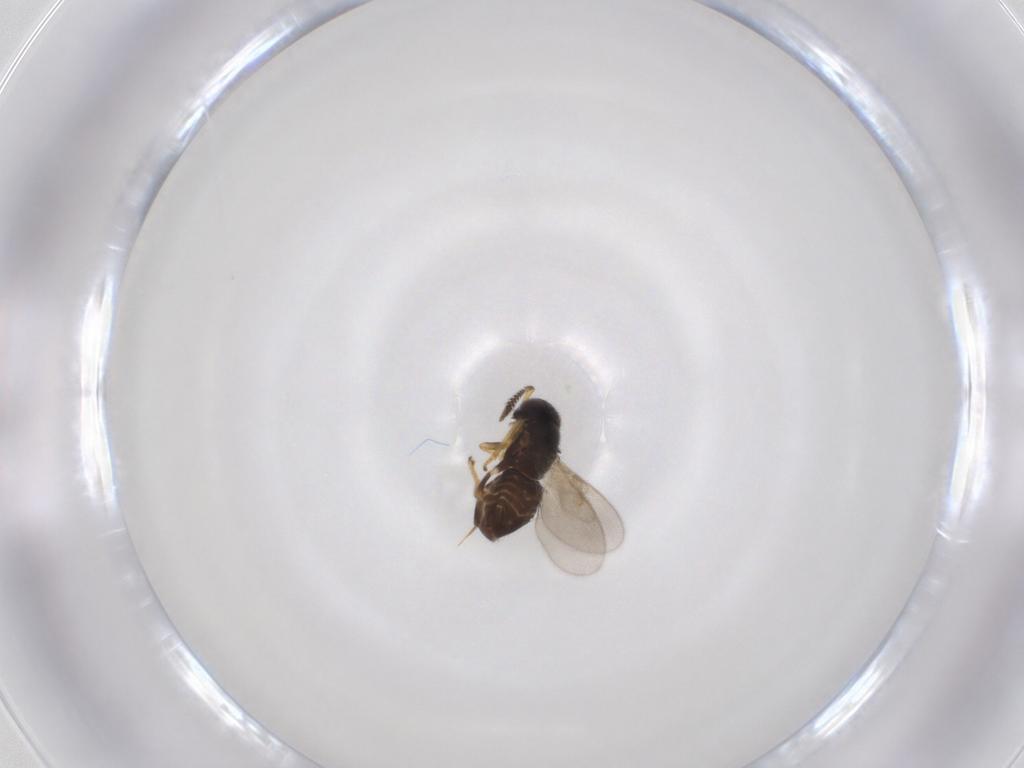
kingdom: Animalia
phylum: Arthropoda
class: Insecta
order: Hymenoptera
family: Encyrtidae
